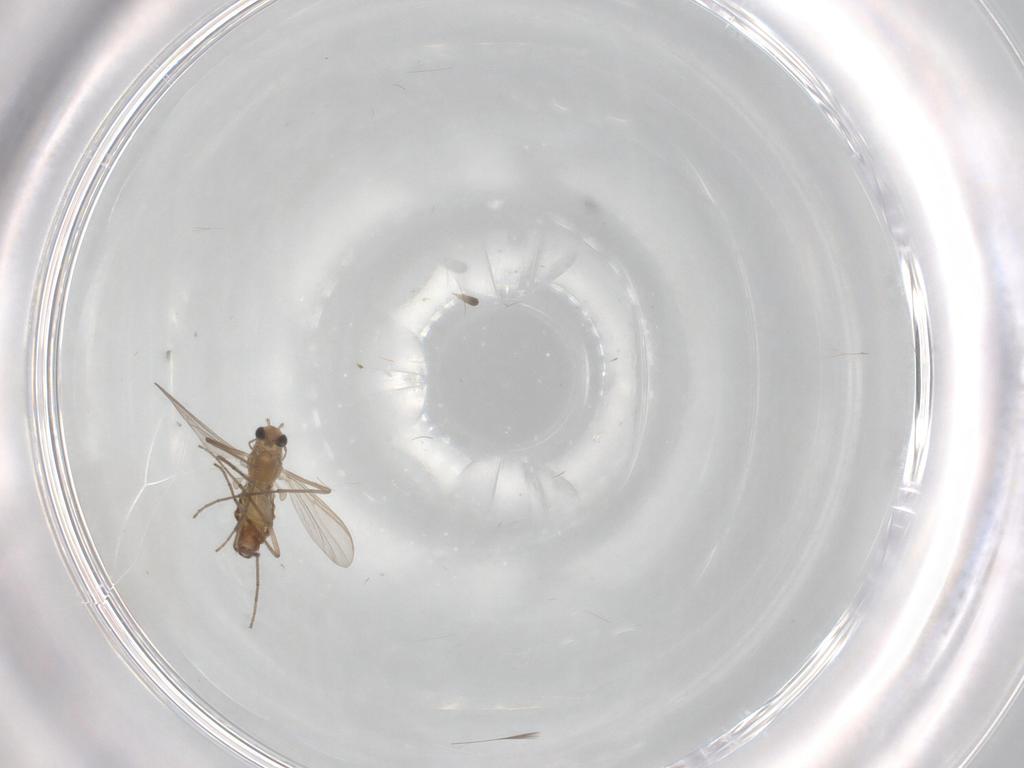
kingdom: Animalia
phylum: Arthropoda
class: Insecta
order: Diptera
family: Chironomidae
